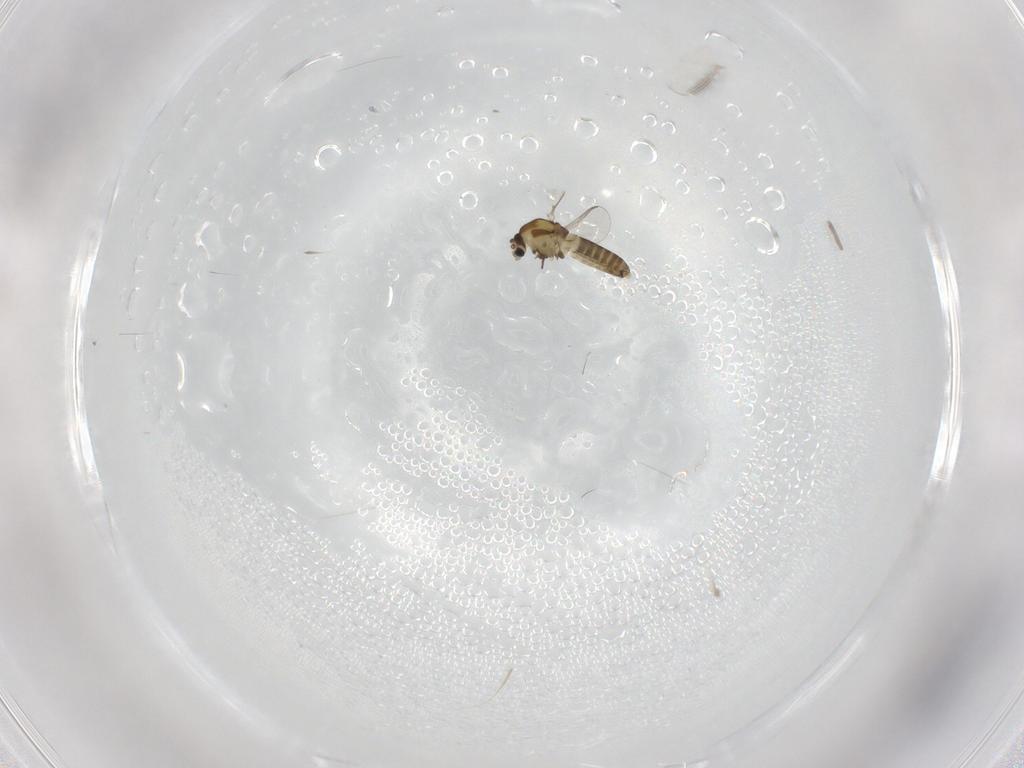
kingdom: Animalia
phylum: Arthropoda
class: Insecta
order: Diptera
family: Chironomidae
